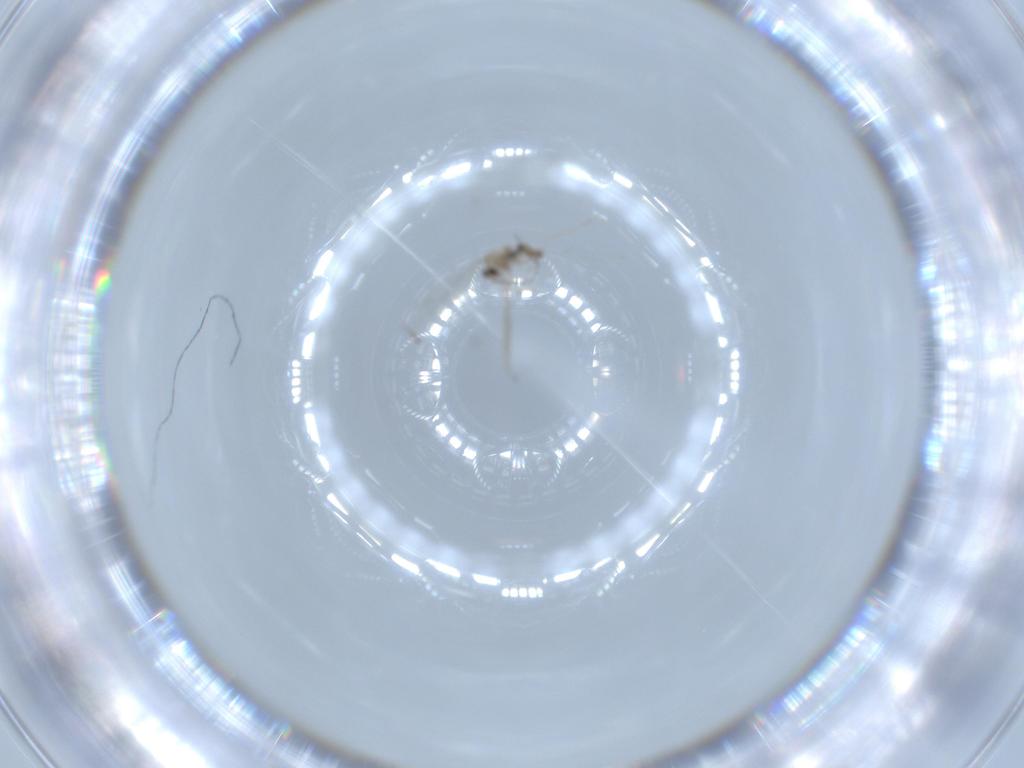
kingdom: Animalia
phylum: Arthropoda
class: Insecta
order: Diptera
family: Cecidomyiidae
